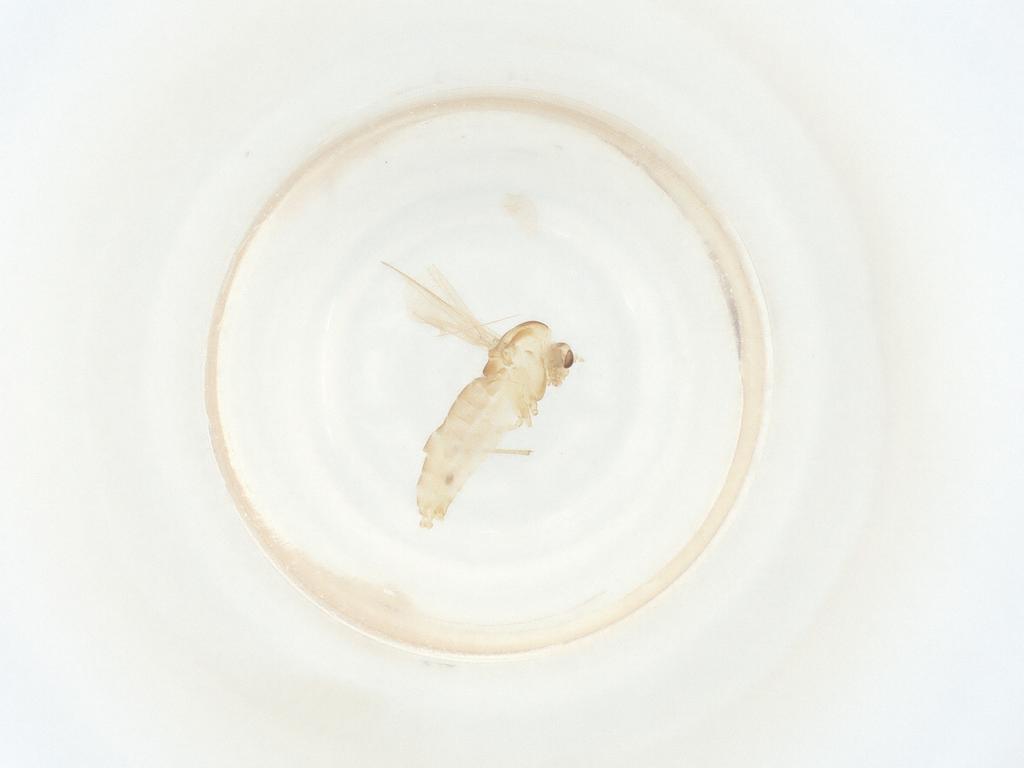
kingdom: Animalia
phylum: Arthropoda
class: Insecta
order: Diptera
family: Chironomidae
